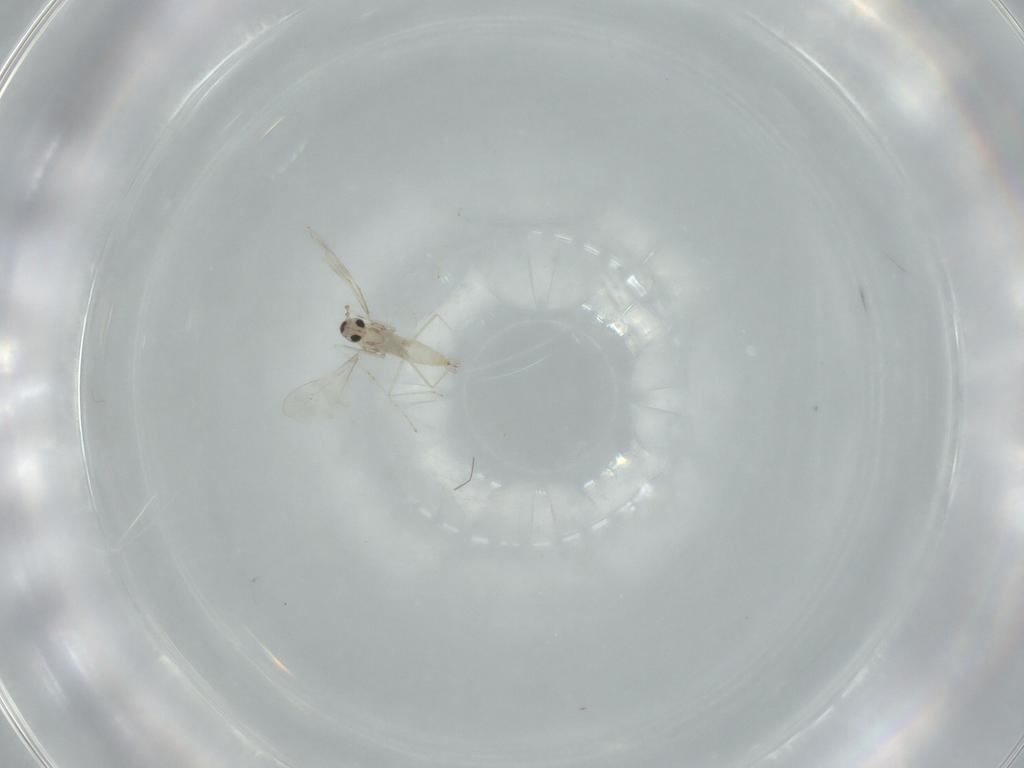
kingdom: Animalia
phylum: Arthropoda
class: Insecta
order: Diptera
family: Cecidomyiidae
